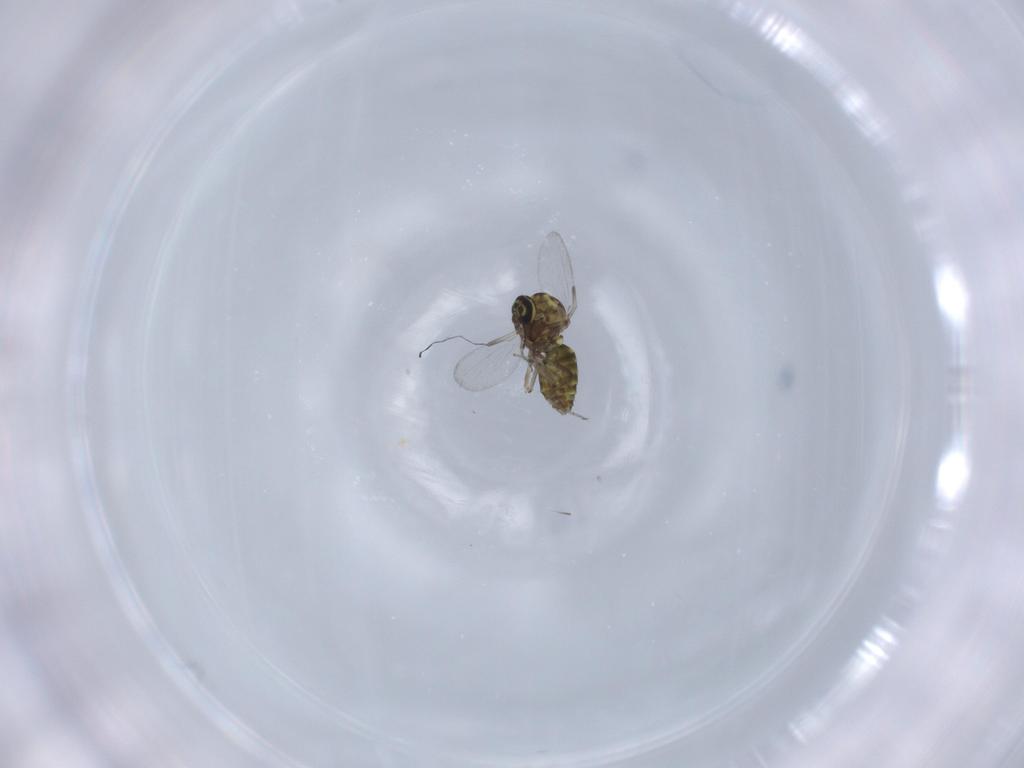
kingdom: Animalia
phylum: Arthropoda
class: Insecta
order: Diptera
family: Ceratopogonidae
